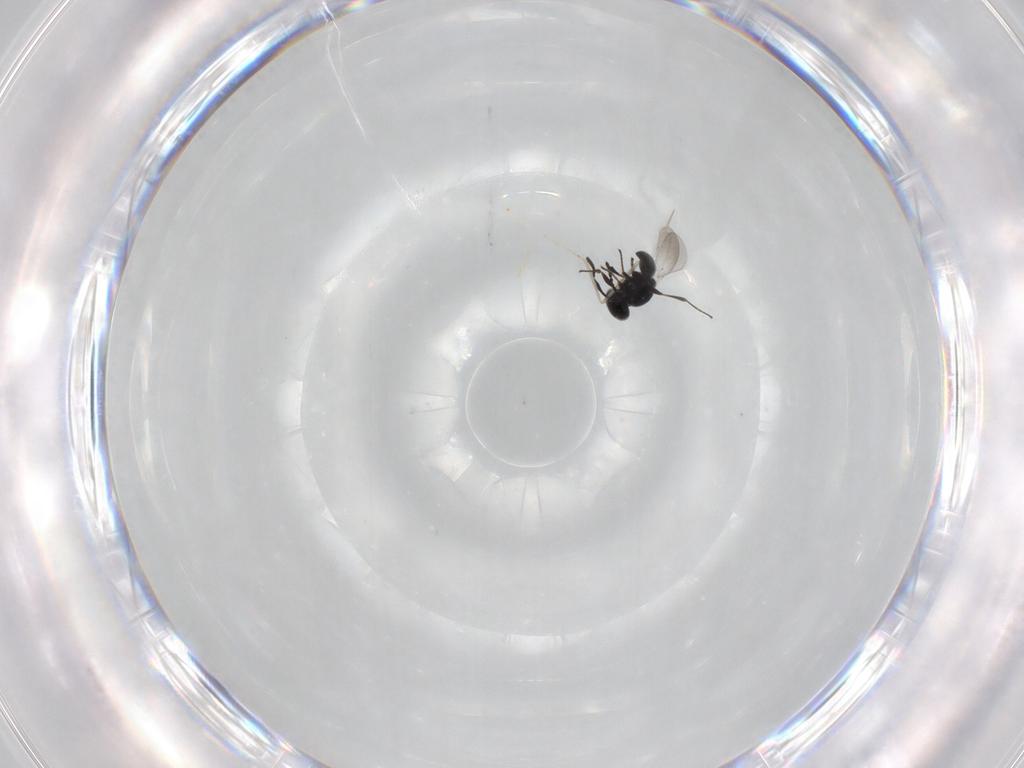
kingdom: Animalia
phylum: Arthropoda
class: Insecta
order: Hymenoptera
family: Platygastridae
